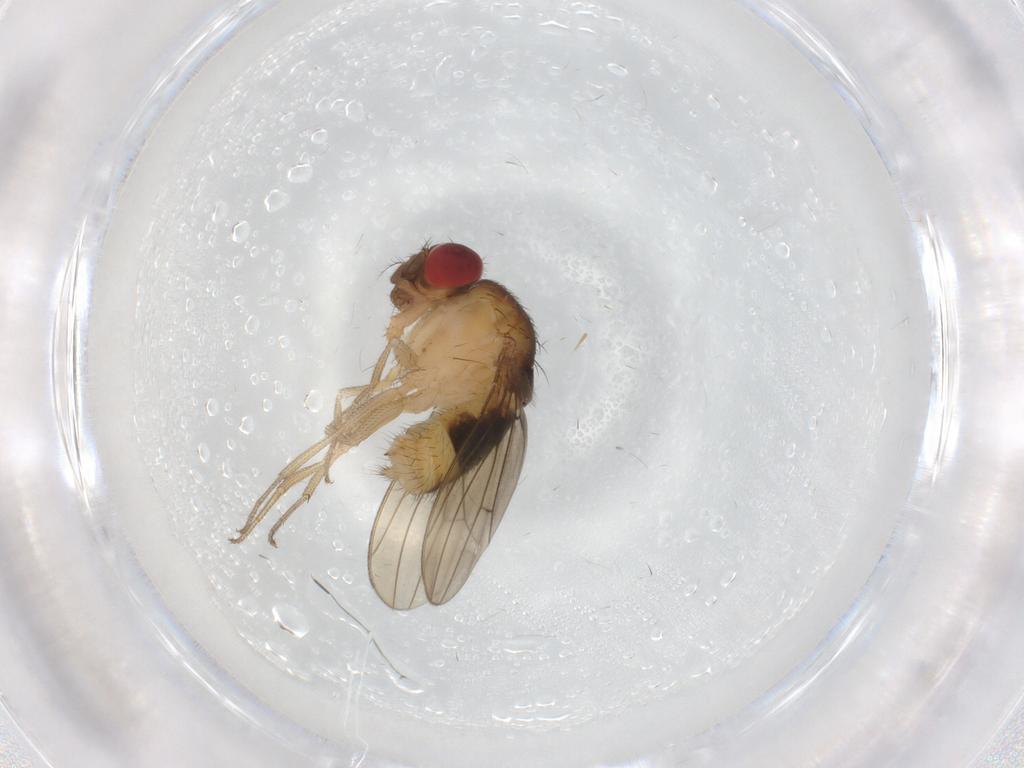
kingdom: Animalia
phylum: Arthropoda
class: Insecta
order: Diptera
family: Drosophilidae
